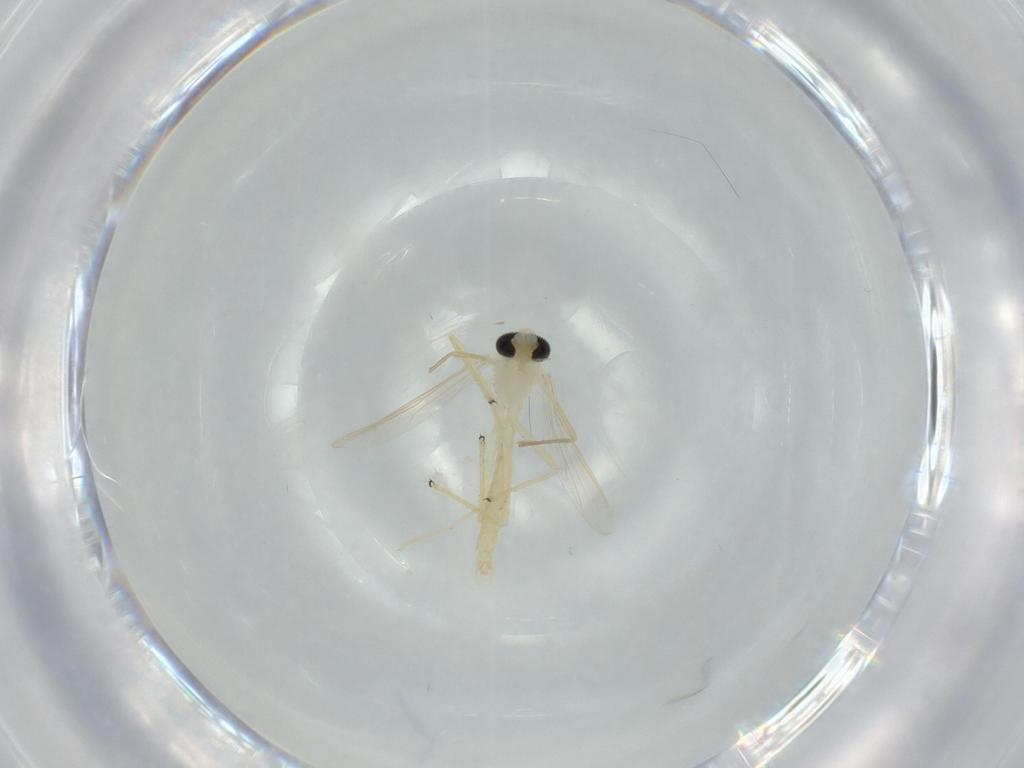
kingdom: Animalia
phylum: Arthropoda
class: Insecta
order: Diptera
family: Chironomidae
